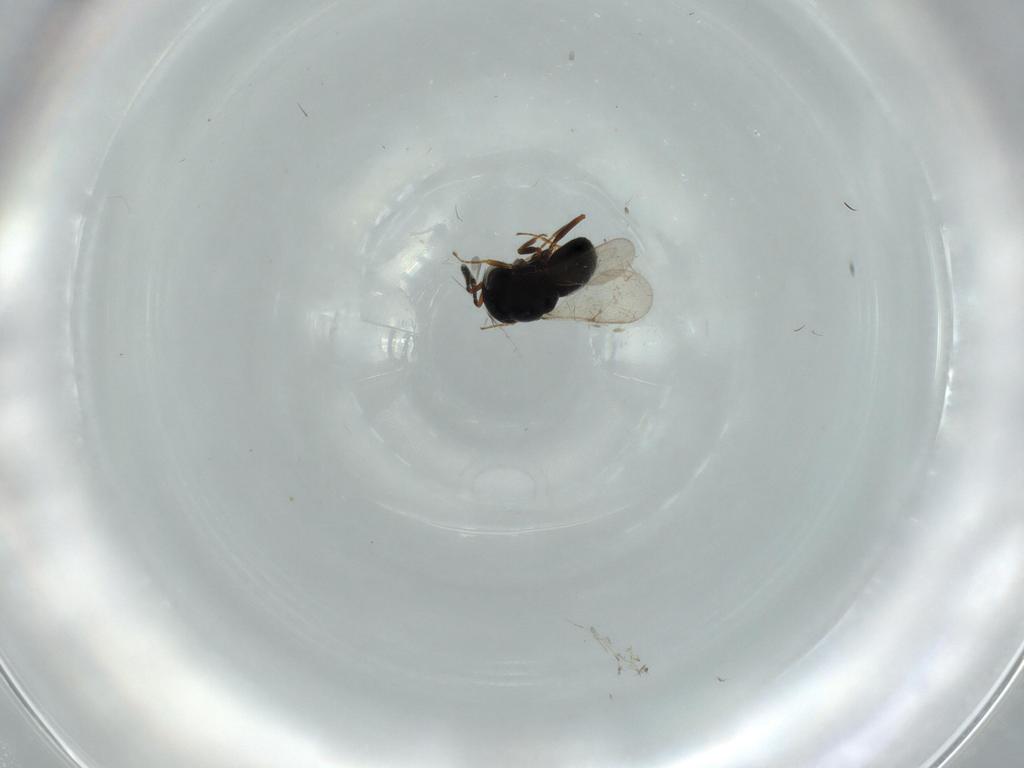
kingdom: Animalia
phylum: Arthropoda
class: Insecta
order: Hymenoptera
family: Scelionidae
